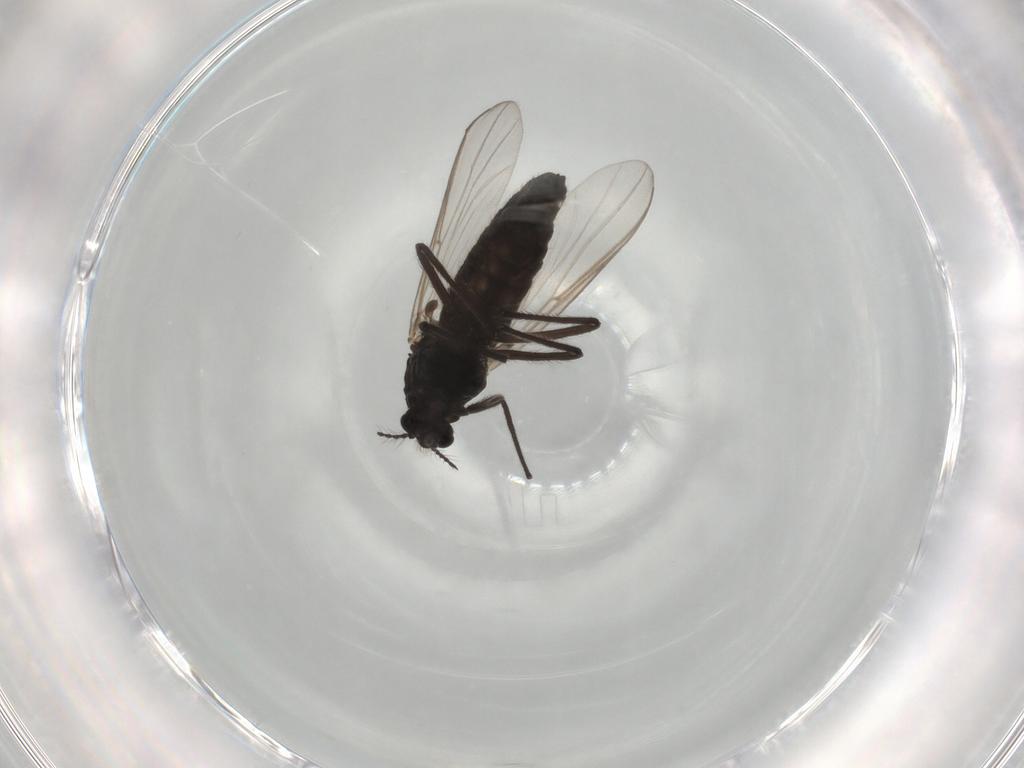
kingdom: Animalia
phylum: Arthropoda
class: Insecta
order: Diptera
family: Chironomidae
